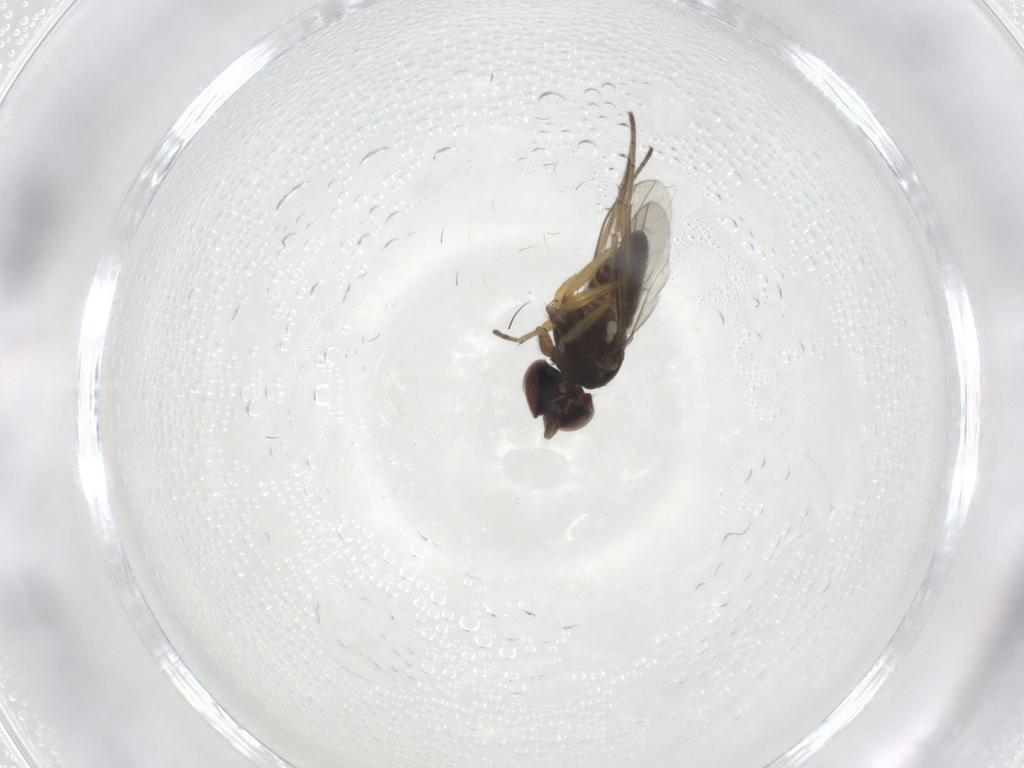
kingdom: Animalia
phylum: Arthropoda
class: Insecta
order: Diptera
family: Dolichopodidae
